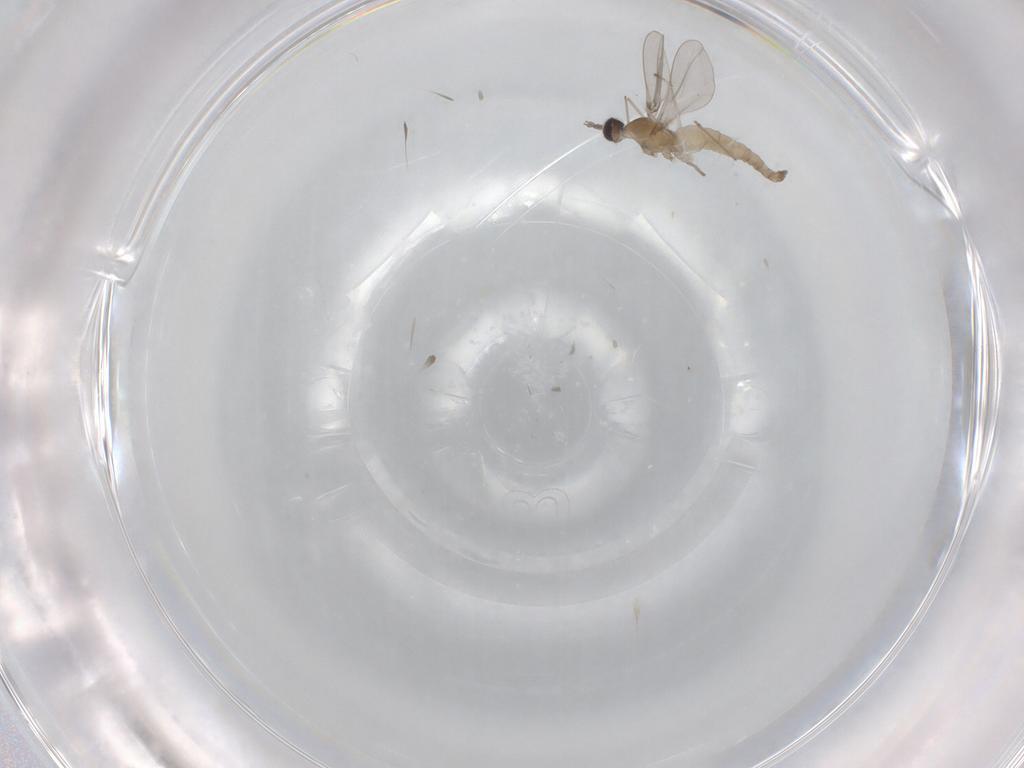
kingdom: Animalia
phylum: Arthropoda
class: Insecta
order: Diptera
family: Cecidomyiidae
